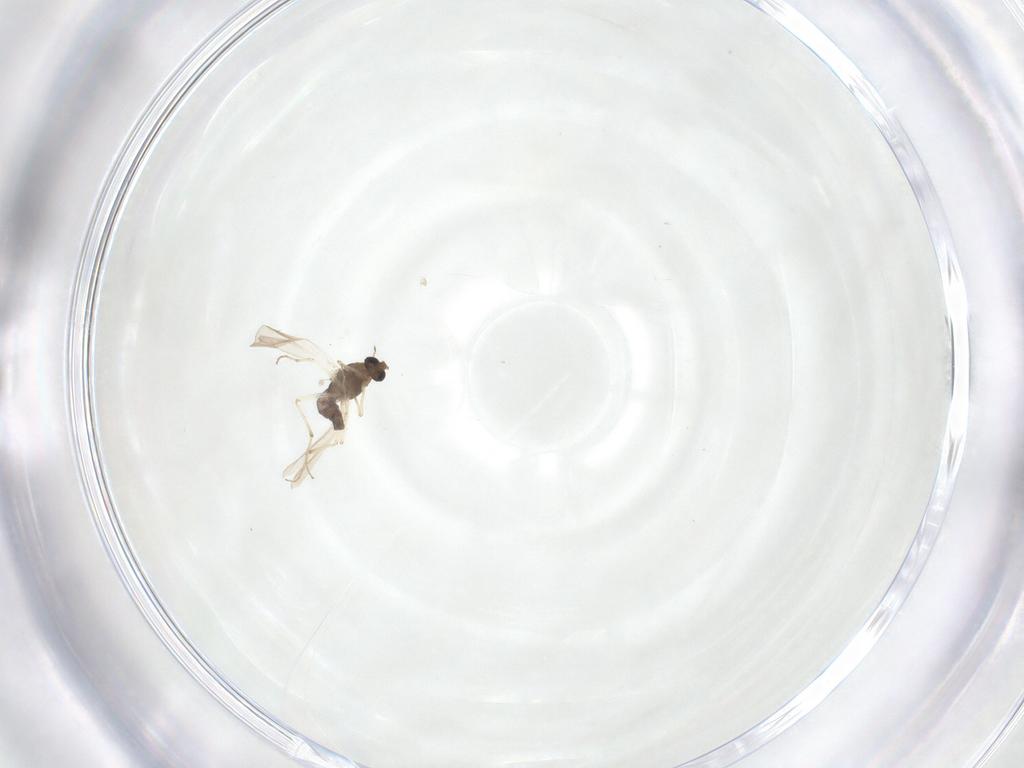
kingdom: Animalia
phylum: Arthropoda
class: Insecta
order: Diptera
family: Chironomidae
